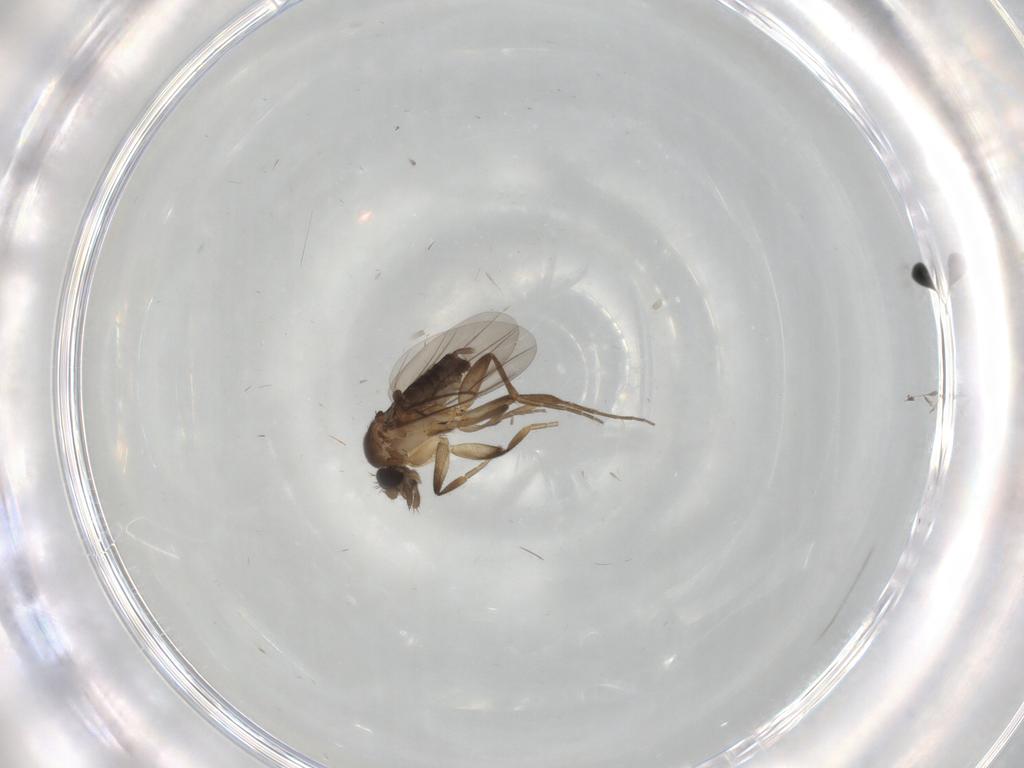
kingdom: Animalia
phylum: Arthropoda
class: Insecta
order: Diptera
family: Phoridae
